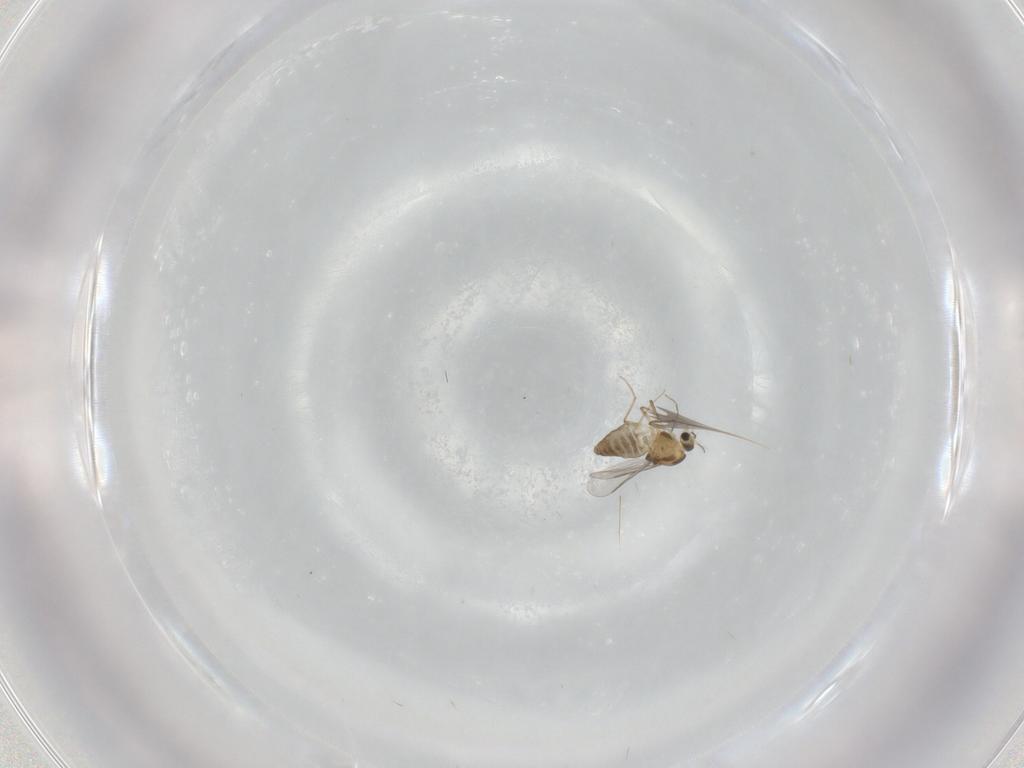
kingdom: Animalia
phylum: Arthropoda
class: Insecta
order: Diptera
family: Chironomidae
